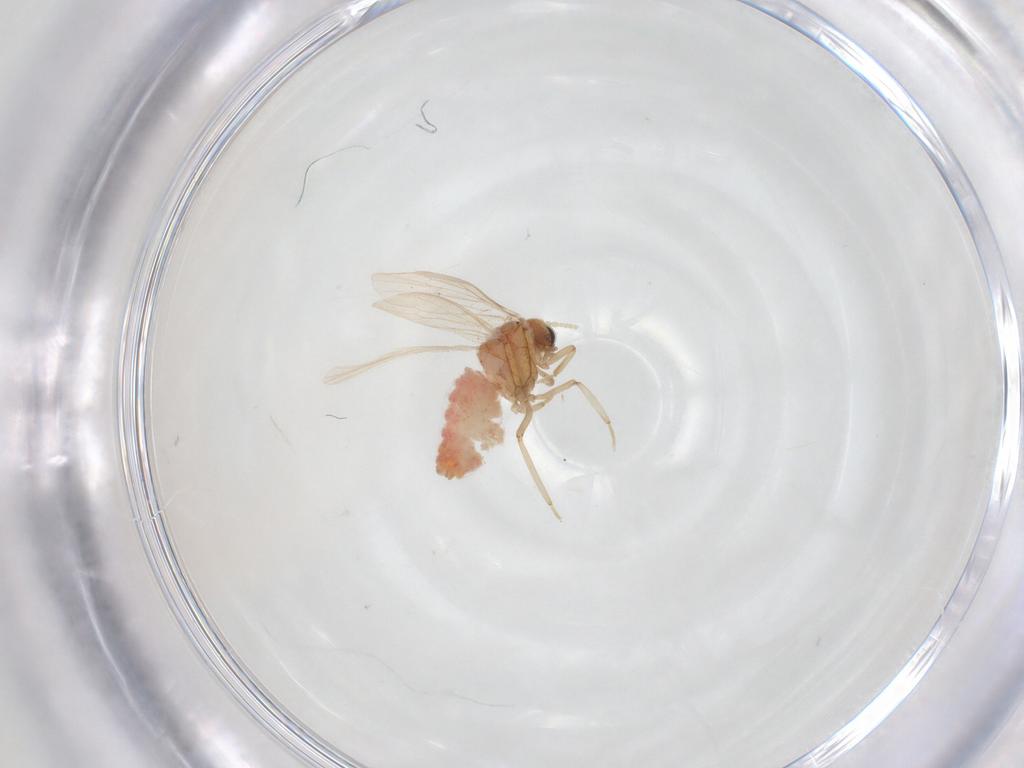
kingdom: Animalia
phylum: Arthropoda
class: Insecta
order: Neuroptera
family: Coniopterygidae
